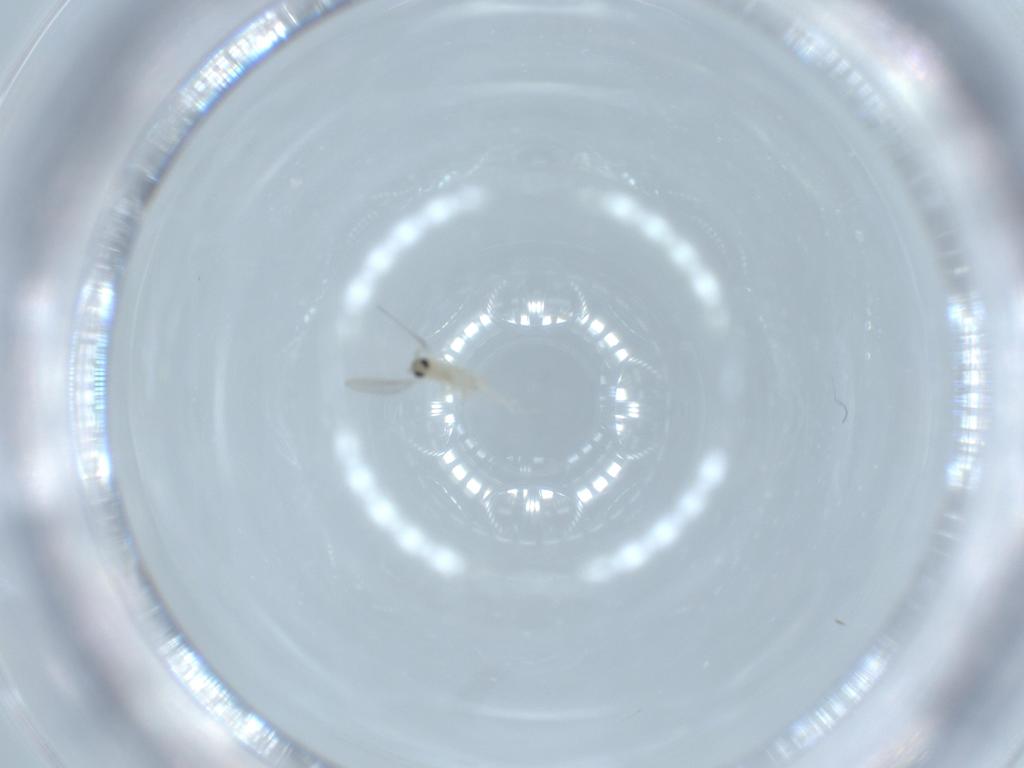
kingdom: Animalia
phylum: Arthropoda
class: Insecta
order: Diptera
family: Cecidomyiidae
